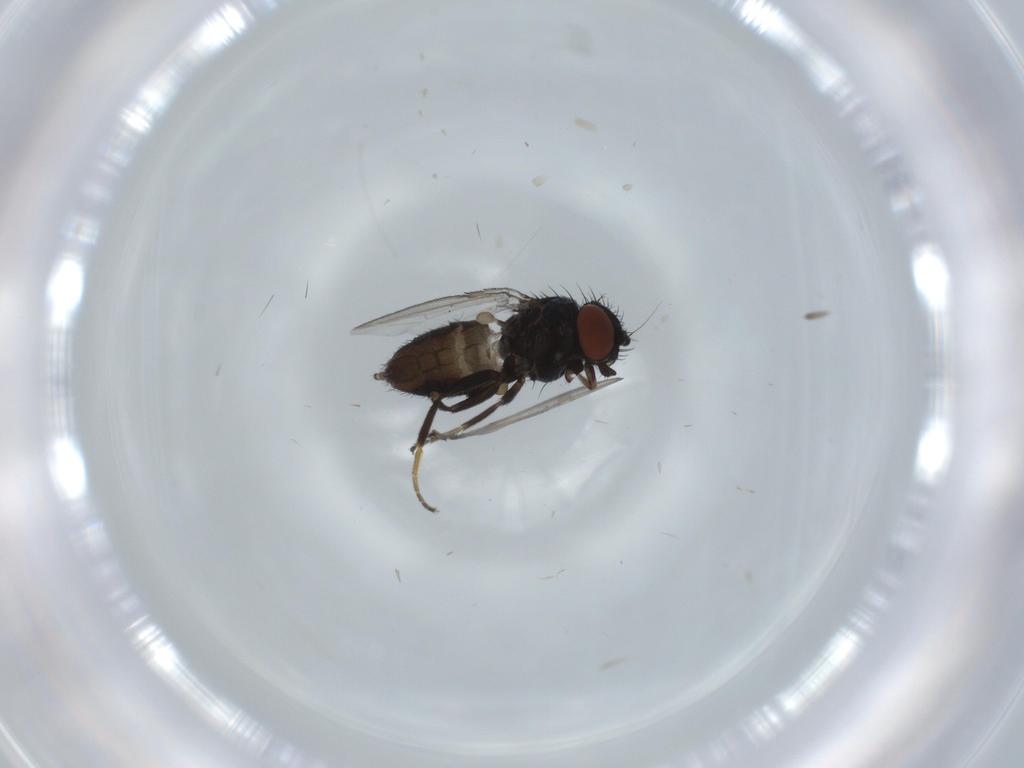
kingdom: Animalia
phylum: Arthropoda
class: Insecta
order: Diptera
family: Milichiidae
